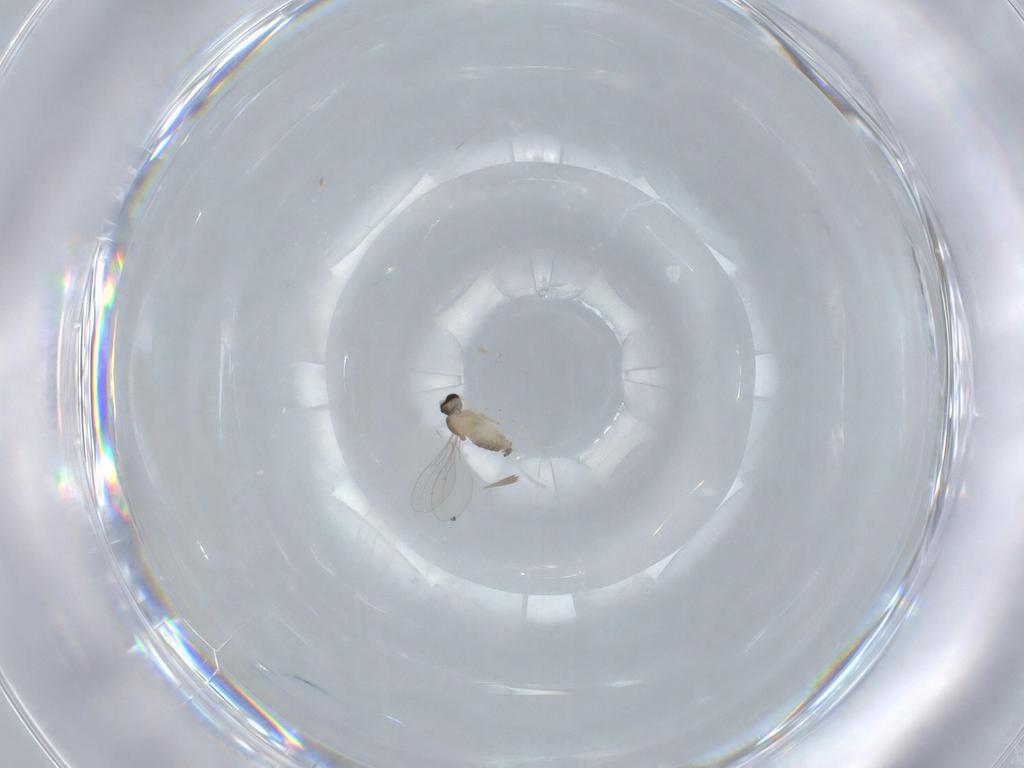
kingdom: Animalia
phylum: Arthropoda
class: Insecta
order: Diptera
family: Cecidomyiidae
